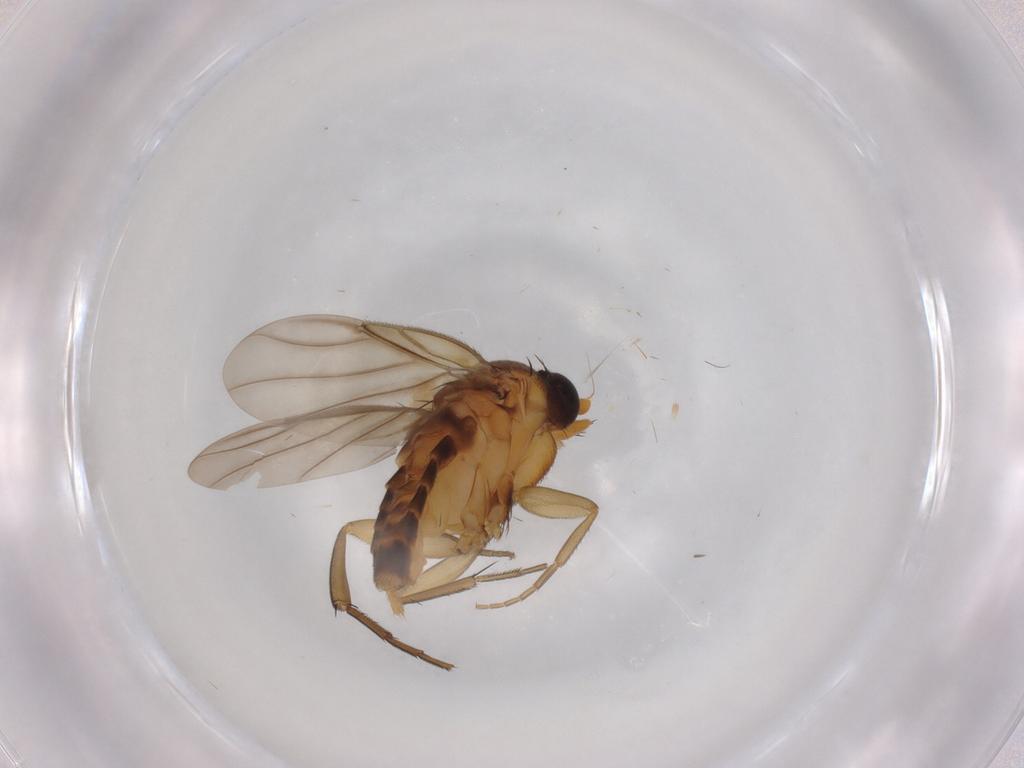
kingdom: Animalia
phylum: Arthropoda
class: Insecta
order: Diptera
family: Chironomidae
